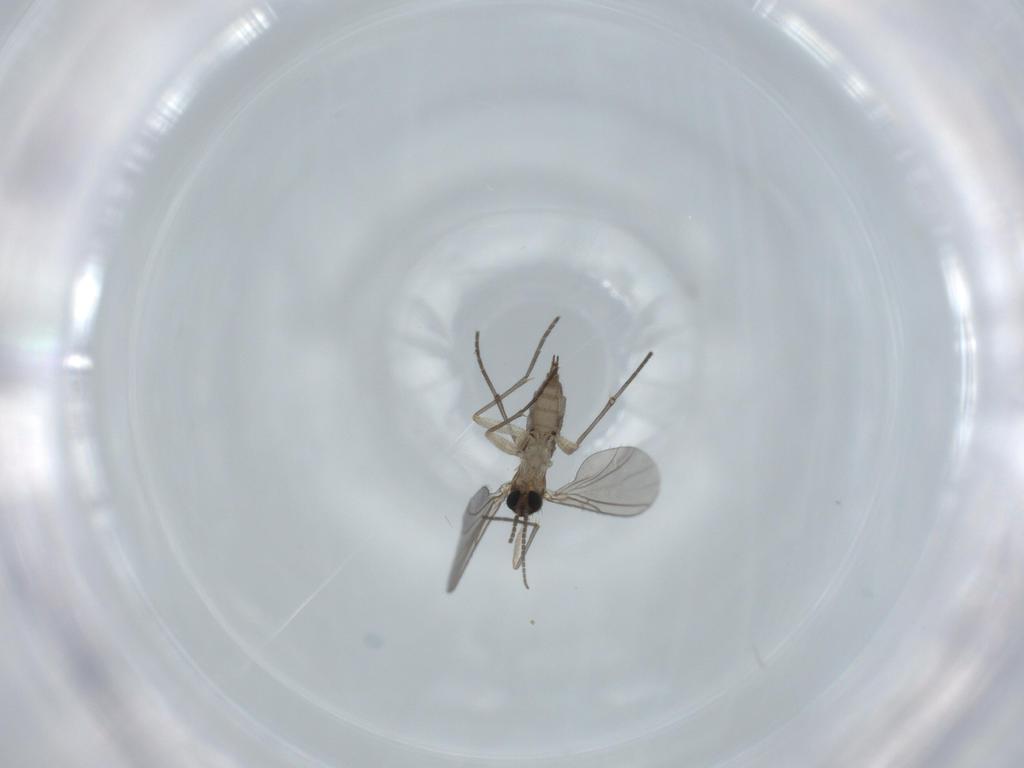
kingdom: Animalia
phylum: Arthropoda
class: Insecta
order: Diptera
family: Sciaridae
